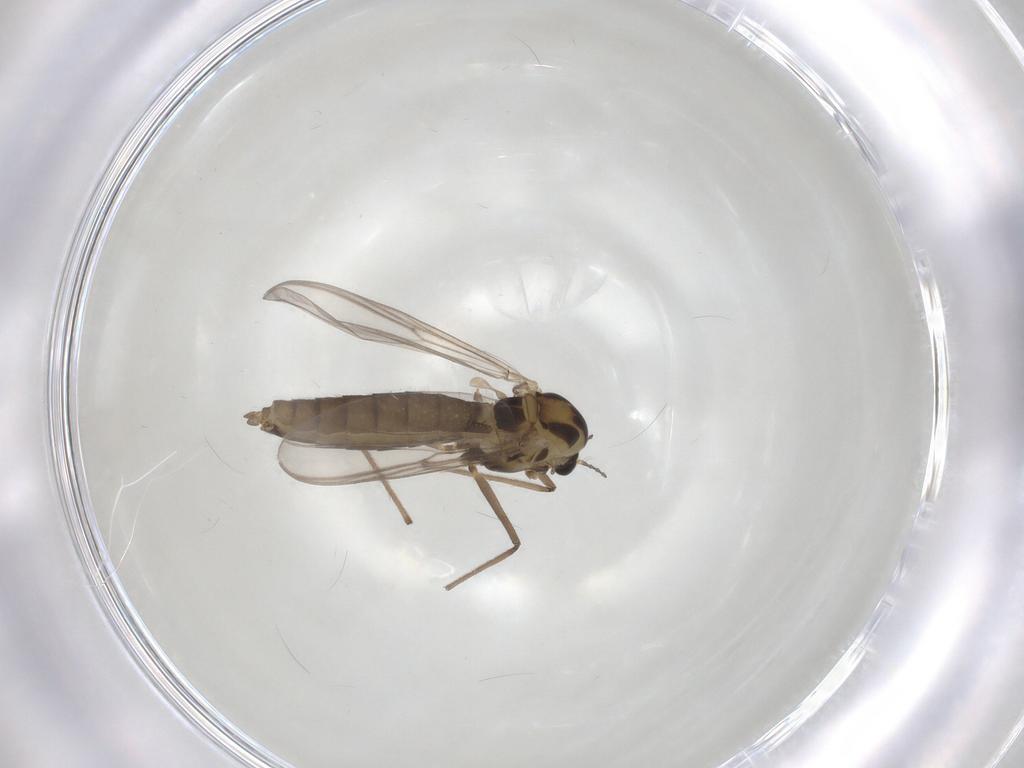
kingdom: Animalia
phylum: Arthropoda
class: Insecta
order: Diptera
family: Chironomidae
